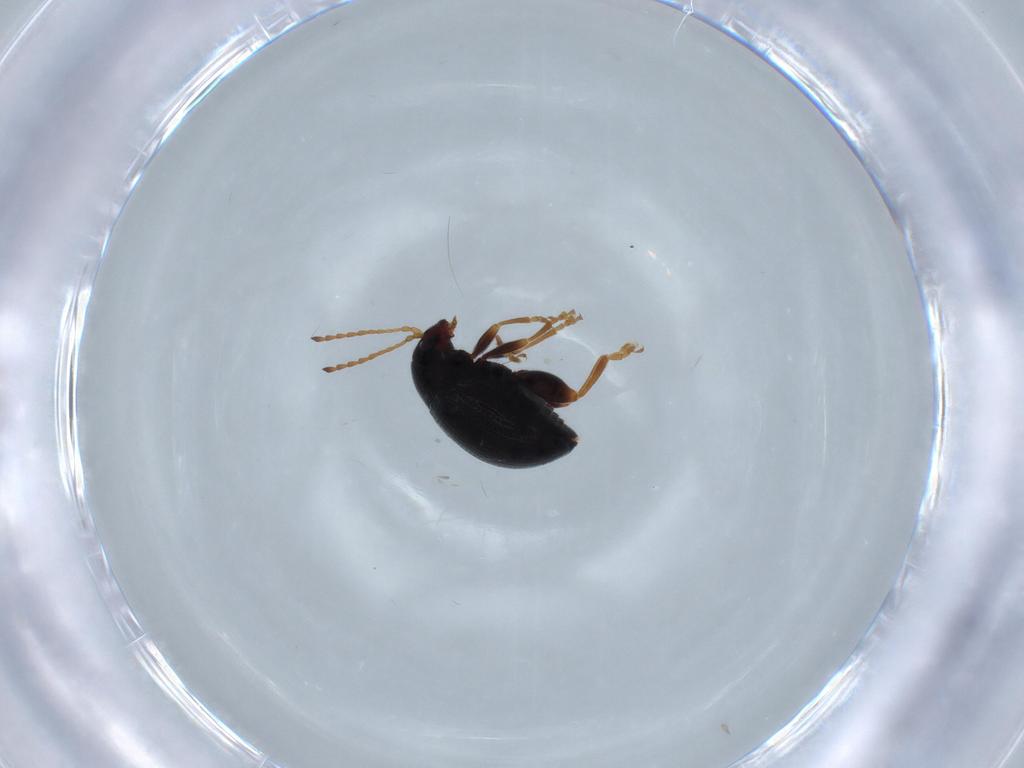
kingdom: Animalia
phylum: Arthropoda
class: Insecta
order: Coleoptera
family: Chrysomelidae
